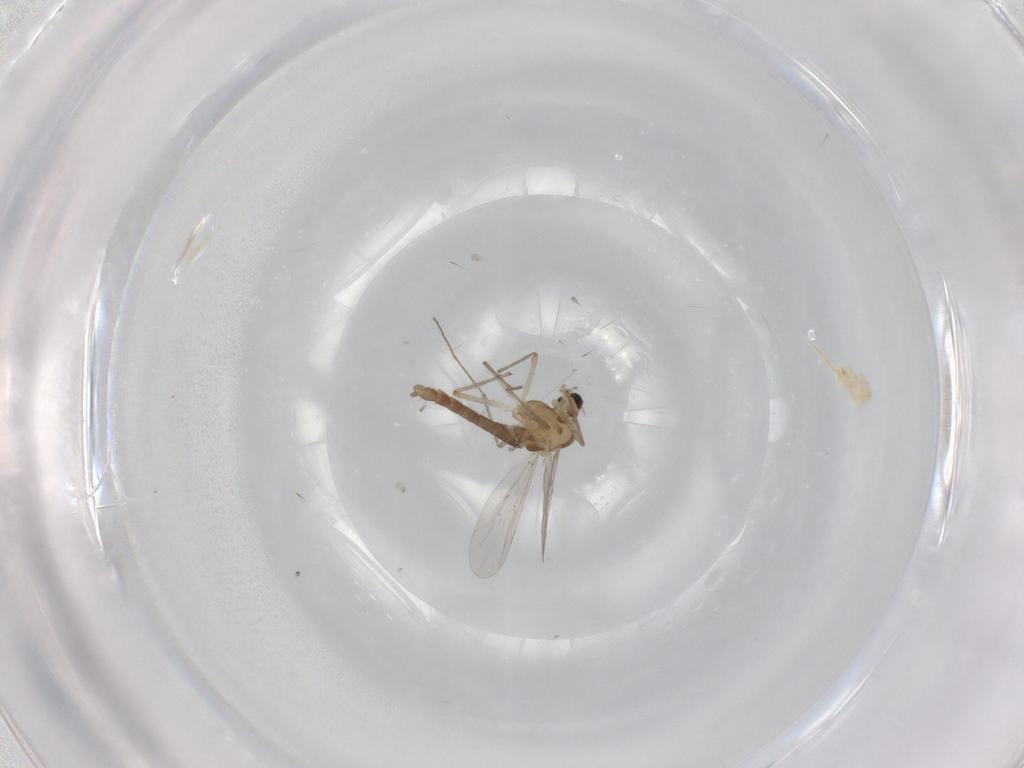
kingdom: Animalia
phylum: Arthropoda
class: Insecta
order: Diptera
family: Chironomidae
